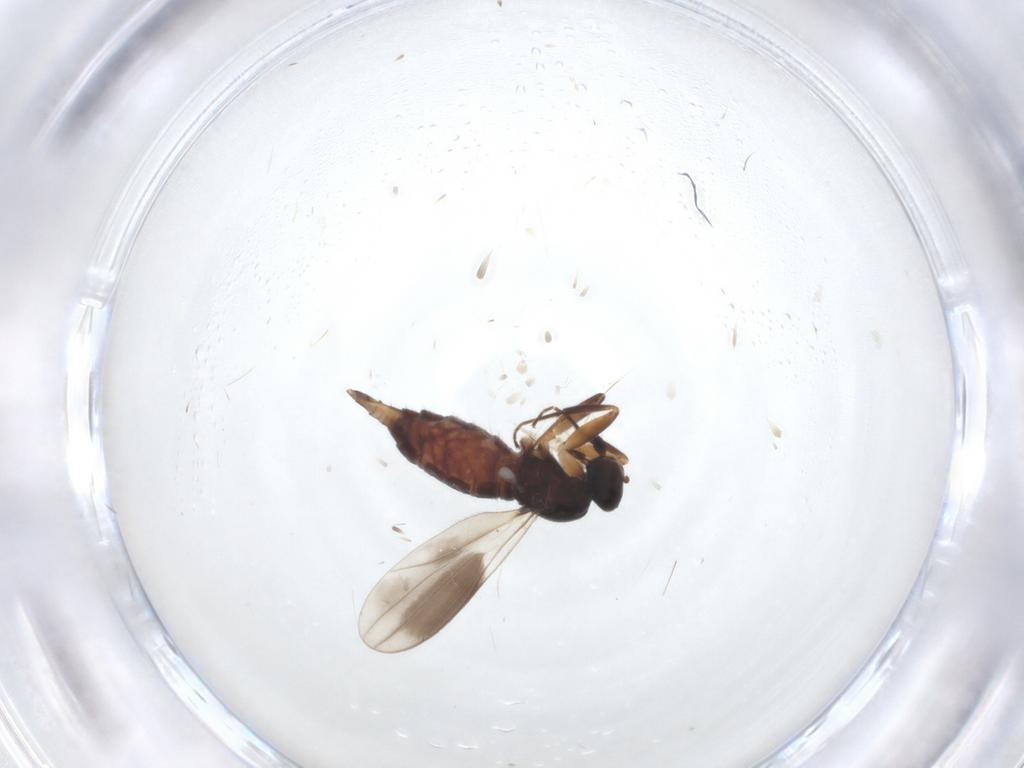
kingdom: Animalia
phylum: Arthropoda
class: Insecta
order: Diptera
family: Hybotidae
